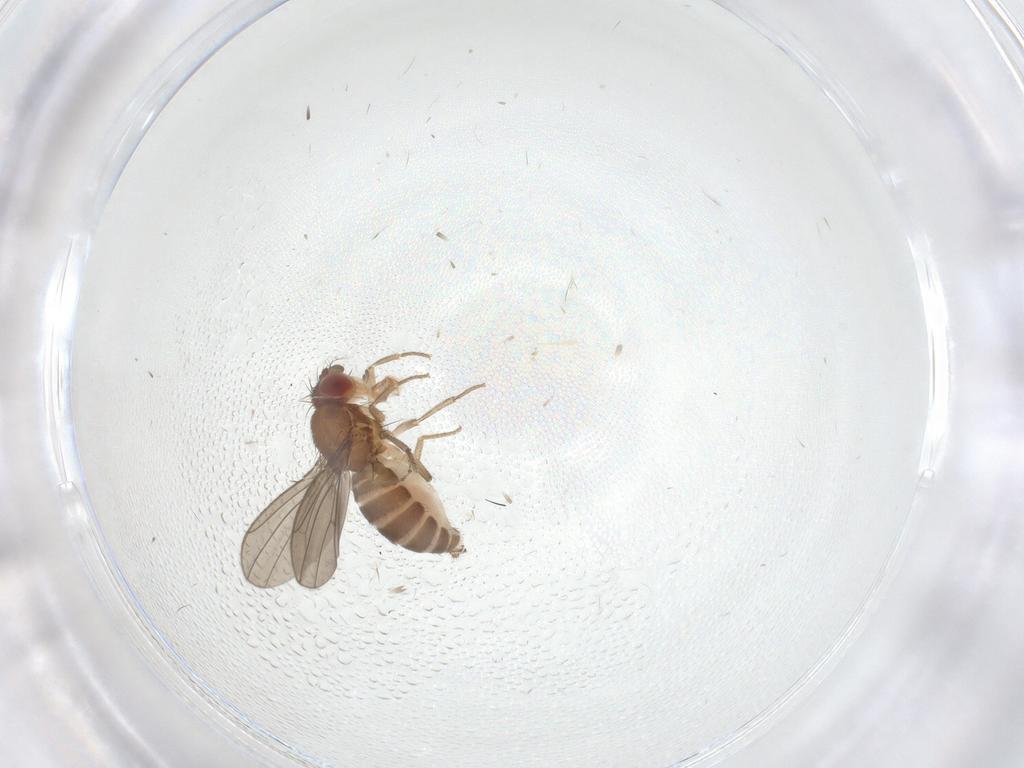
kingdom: Animalia
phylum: Arthropoda
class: Insecta
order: Diptera
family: Drosophilidae
